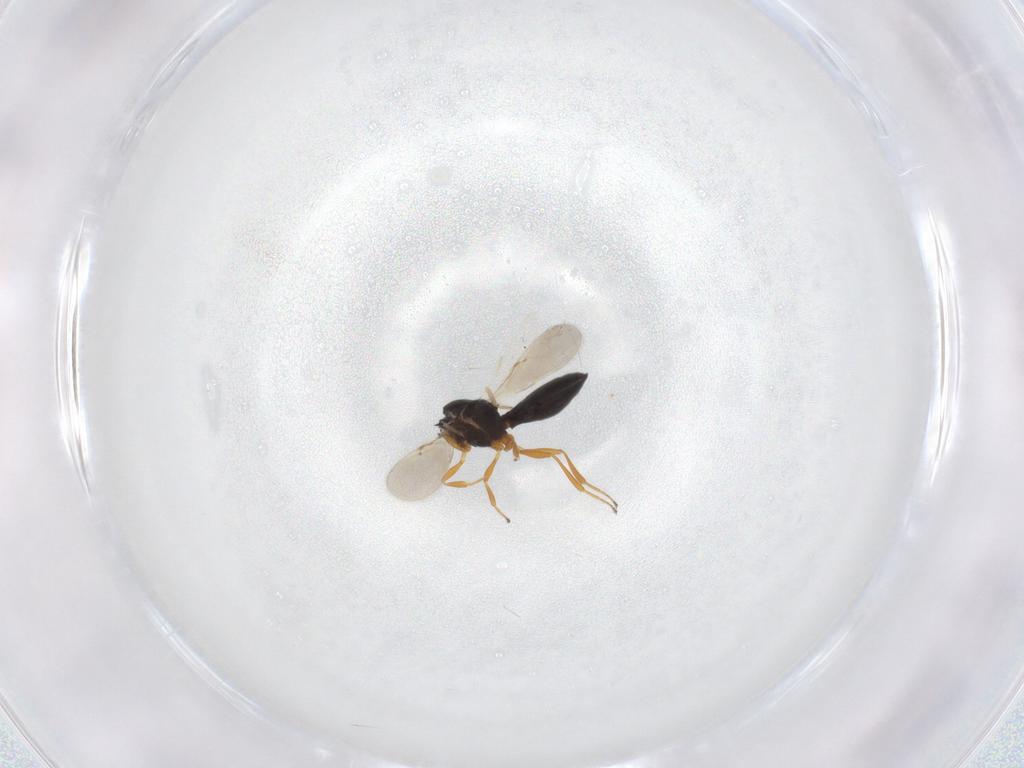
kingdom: Animalia
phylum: Arthropoda
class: Insecta
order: Hymenoptera
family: Scelionidae
